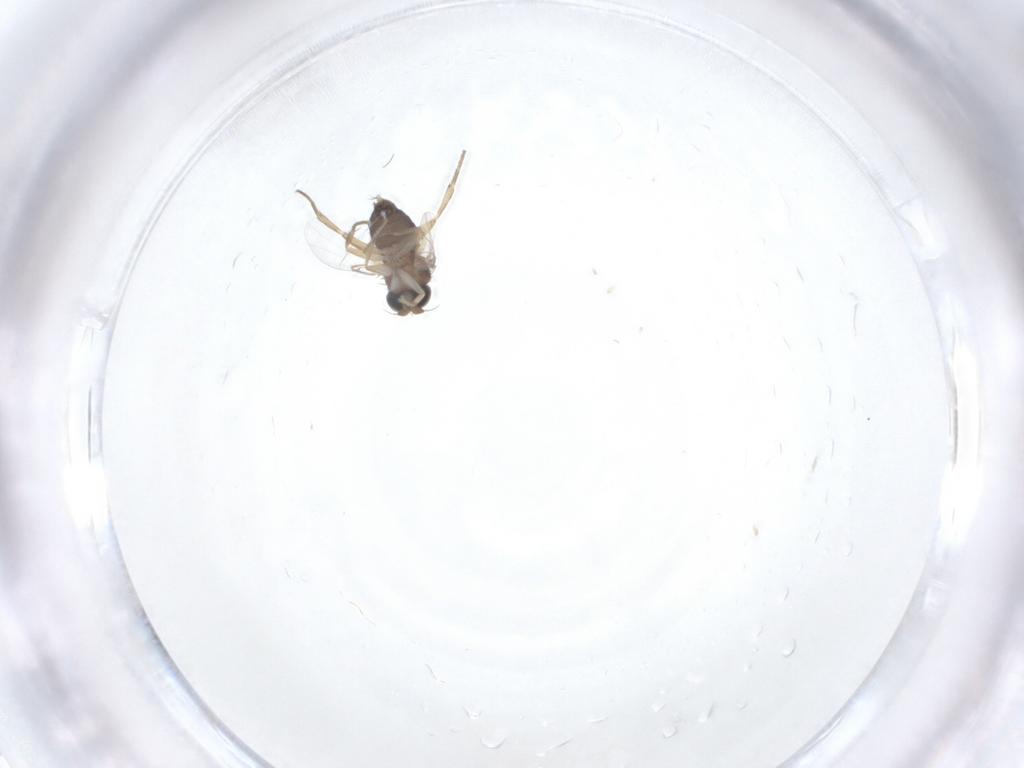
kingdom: Animalia
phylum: Arthropoda
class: Insecta
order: Diptera
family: Phoridae
